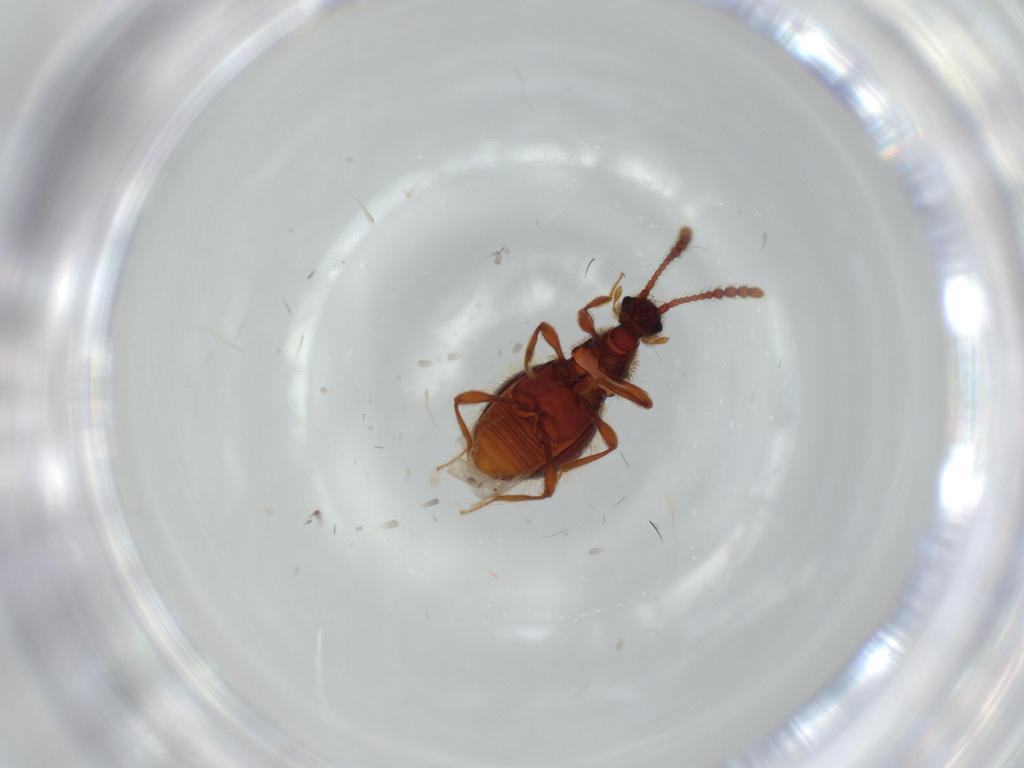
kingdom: Animalia
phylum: Arthropoda
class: Insecta
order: Coleoptera
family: Staphylinidae
